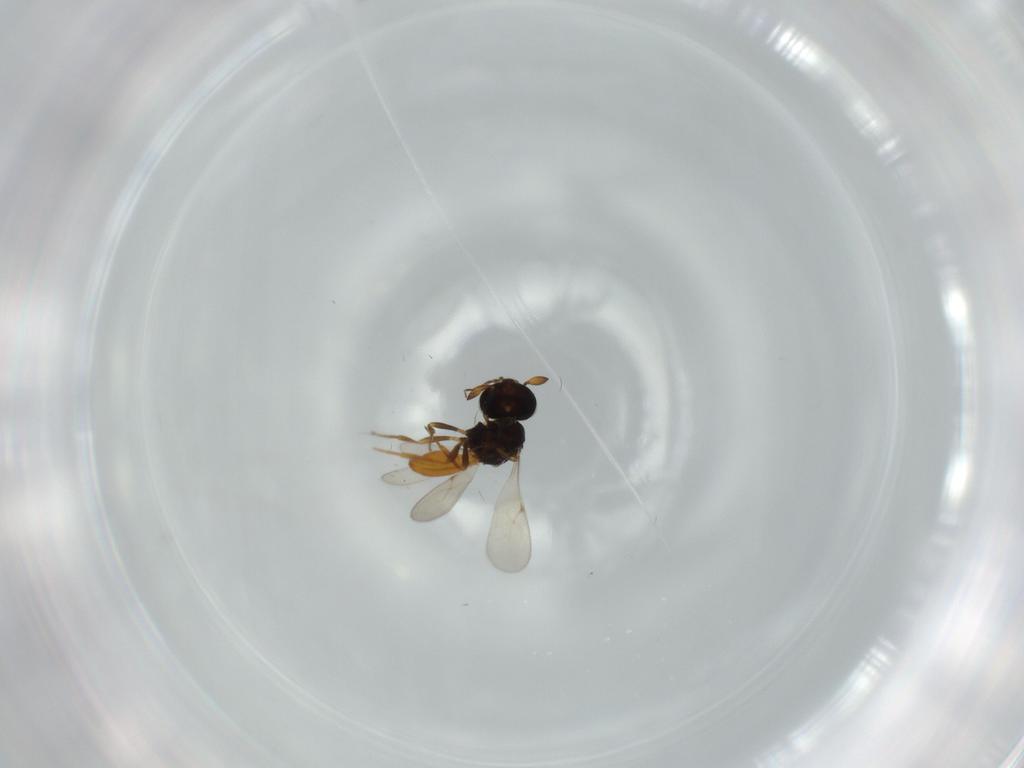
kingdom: Animalia
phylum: Arthropoda
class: Insecta
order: Hymenoptera
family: Scelionidae
